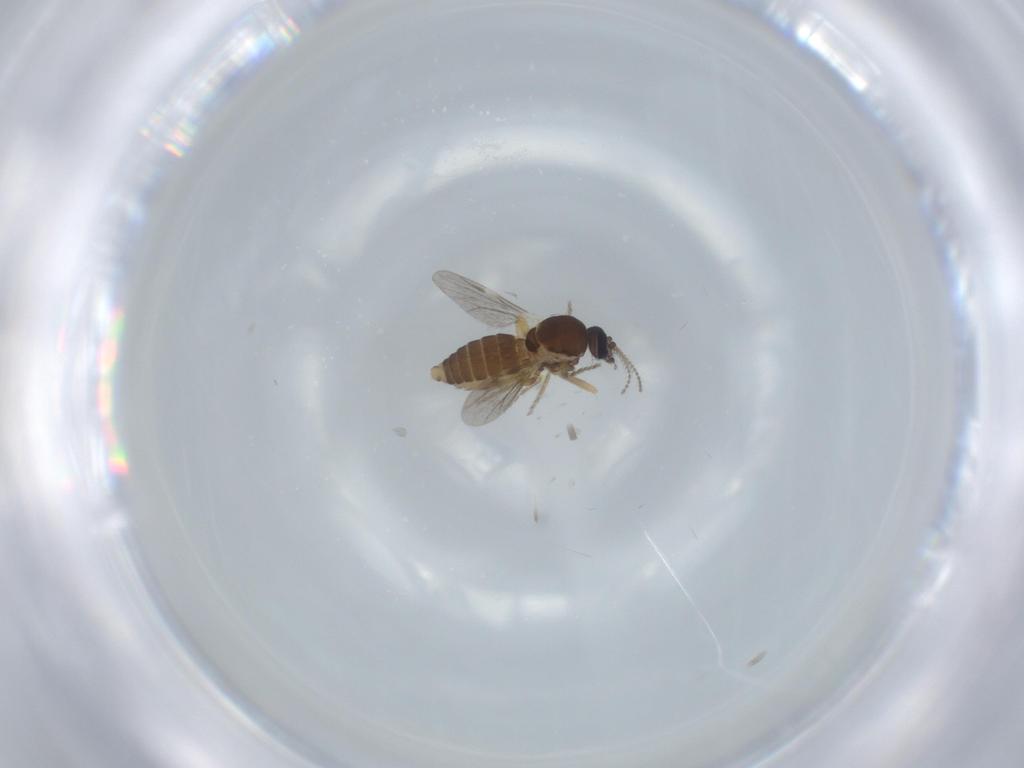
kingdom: Animalia
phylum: Arthropoda
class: Insecta
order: Diptera
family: Ceratopogonidae
